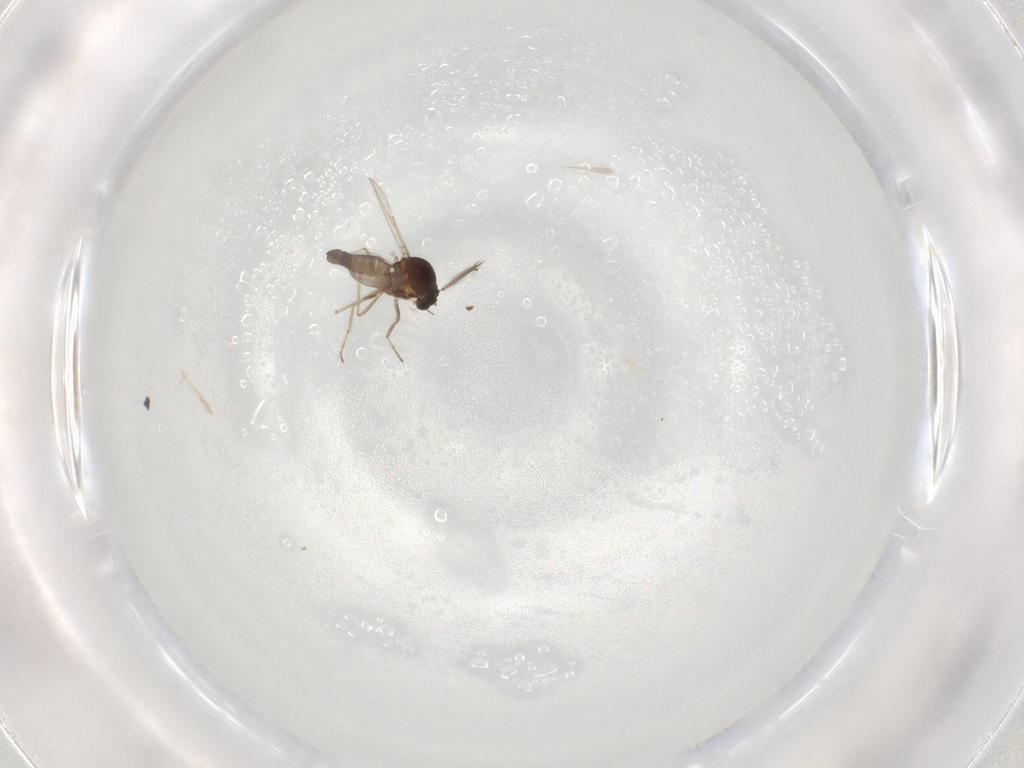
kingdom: Animalia
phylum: Arthropoda
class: Insecta
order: Diptera
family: Ceratopogonidae
